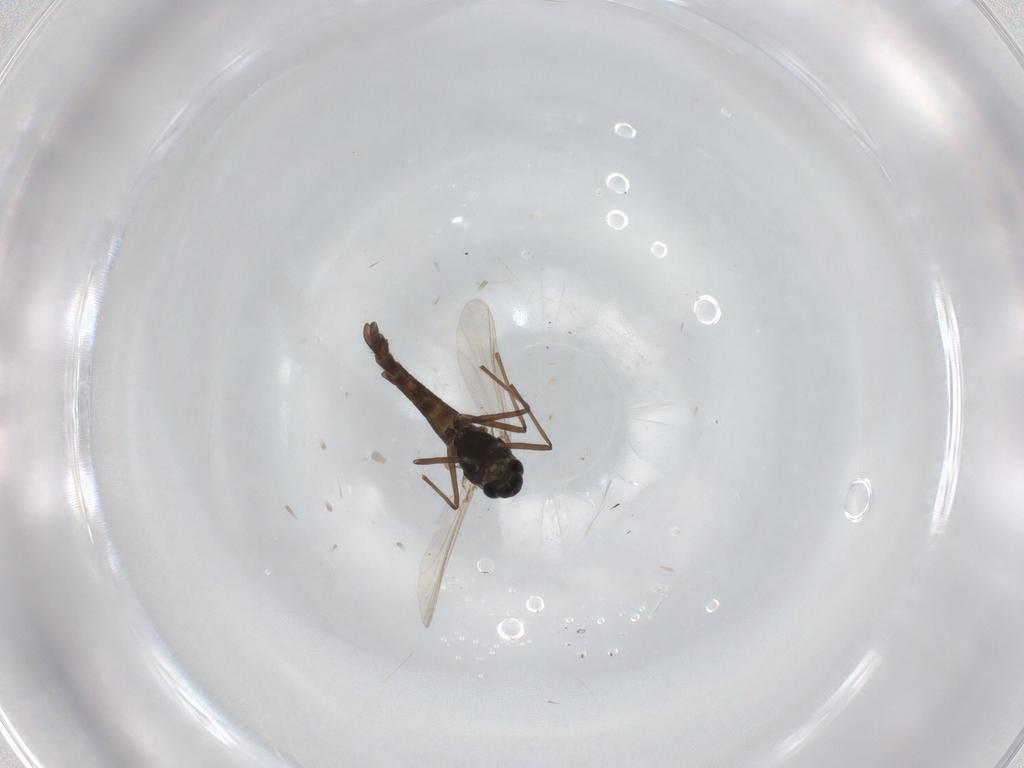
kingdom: Animalia
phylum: Arthropoda
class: Insecta
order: Diptera
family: Chironomidae
